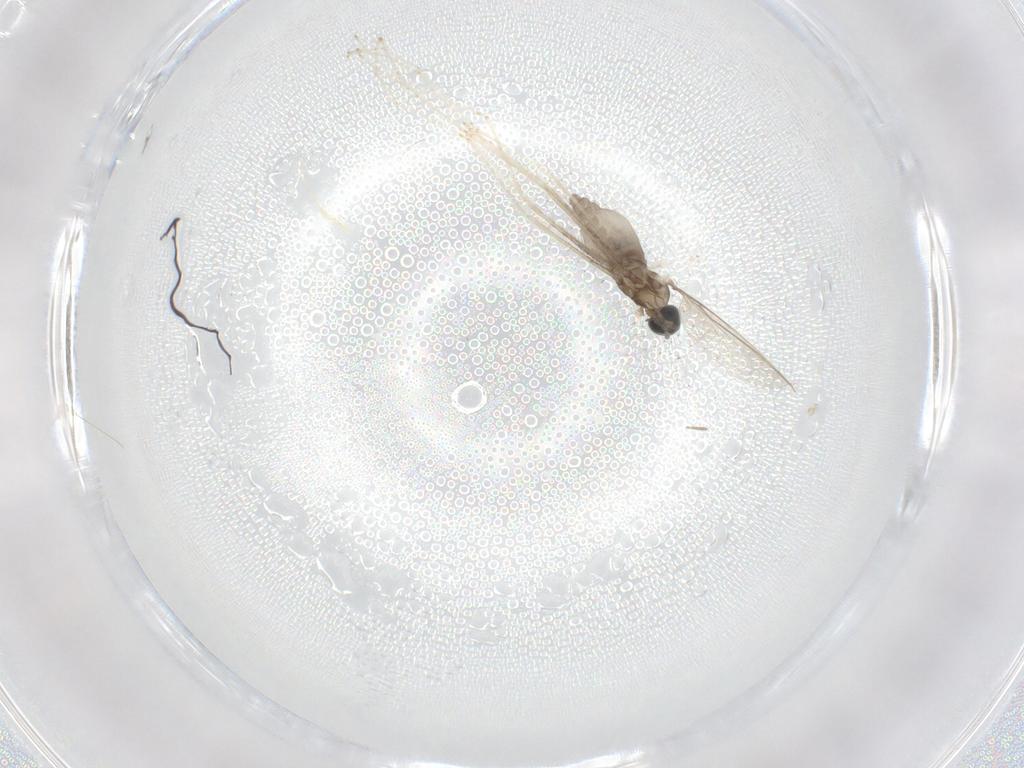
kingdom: Animalia
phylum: Arthropoda
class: Insecta
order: Diptera
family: Cecidomyiidae
